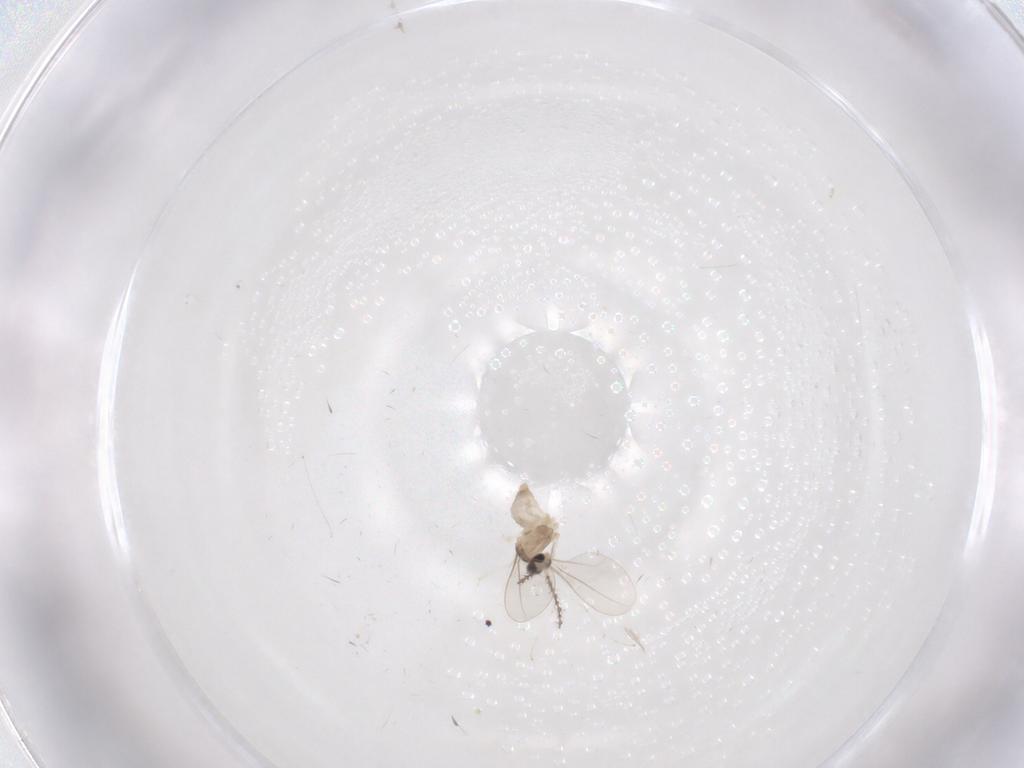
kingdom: Animalia
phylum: Arthropoda
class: Insecta
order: Diptera
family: Cecidomyiidae
